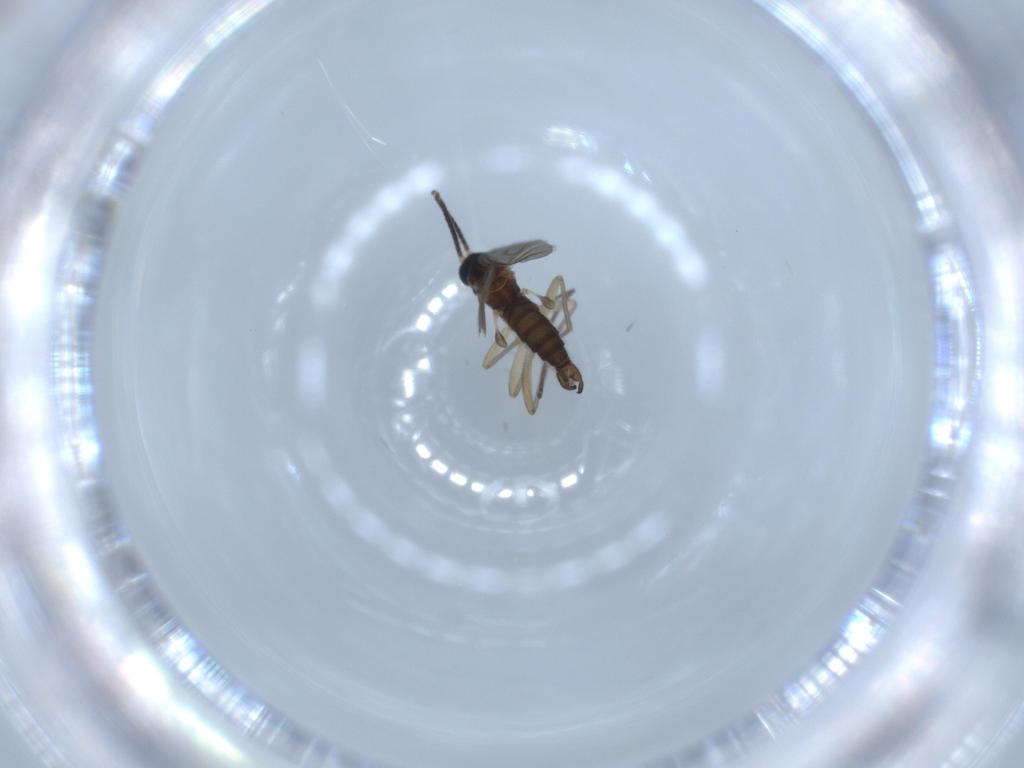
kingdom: Animalia
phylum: Arthropoda
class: Insecta
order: Diptera
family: Sciaridae
